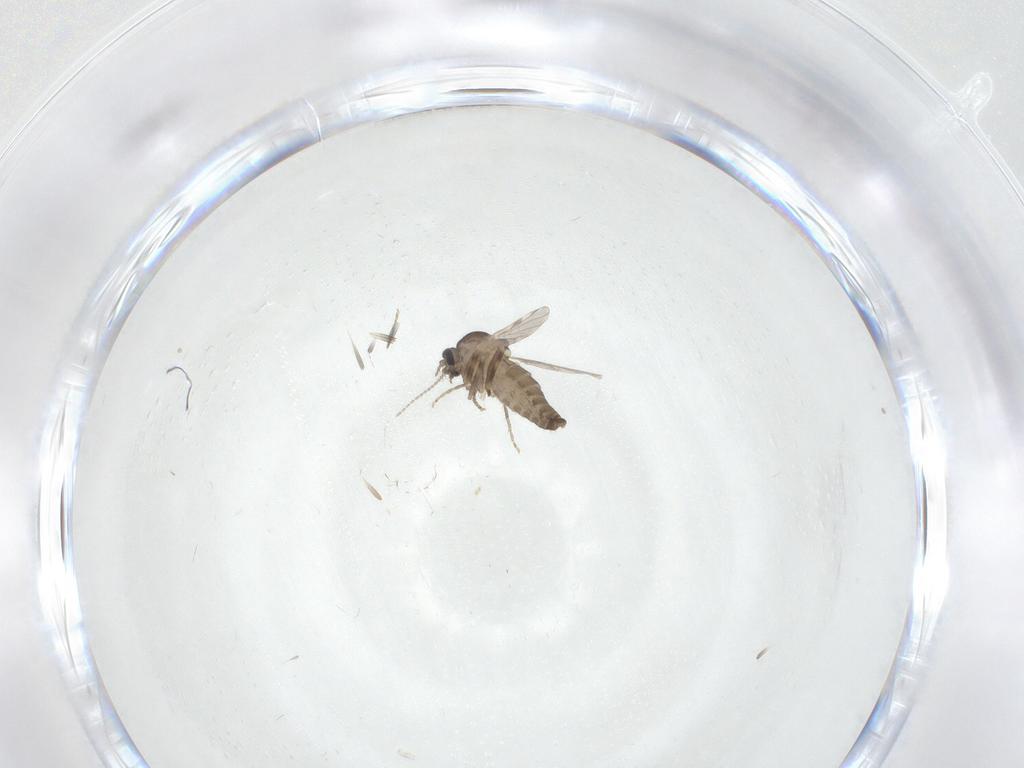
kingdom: Animalia
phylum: Arthropoda
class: Insecta
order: Diptera
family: Ceratopogonidae
